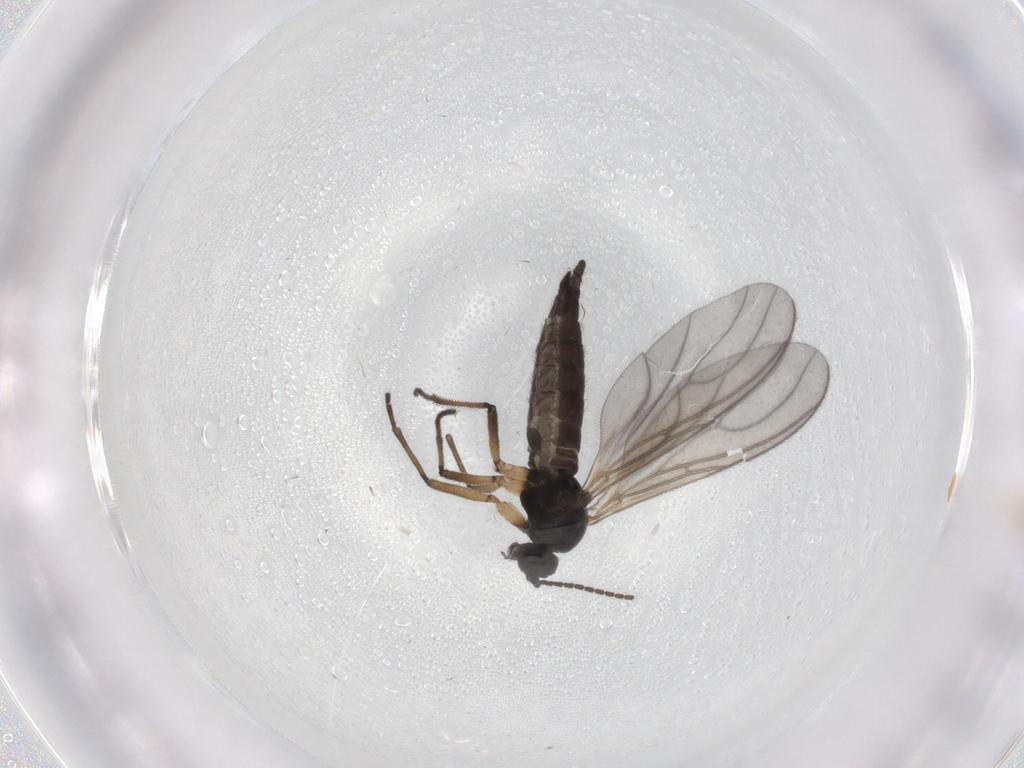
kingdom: Animalia
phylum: Arthropoda
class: Insecta
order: Diptera
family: Sciaridae
